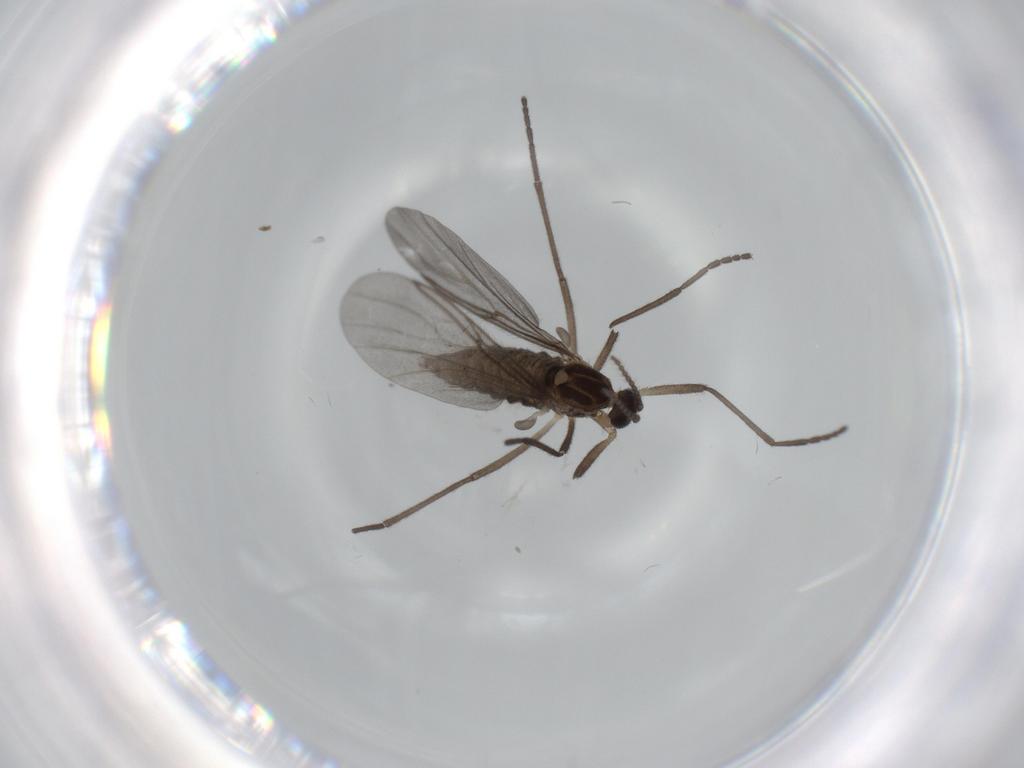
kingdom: Animalia
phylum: Arthropoda
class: Insecta
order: Diptera
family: Cecidomyiidae
